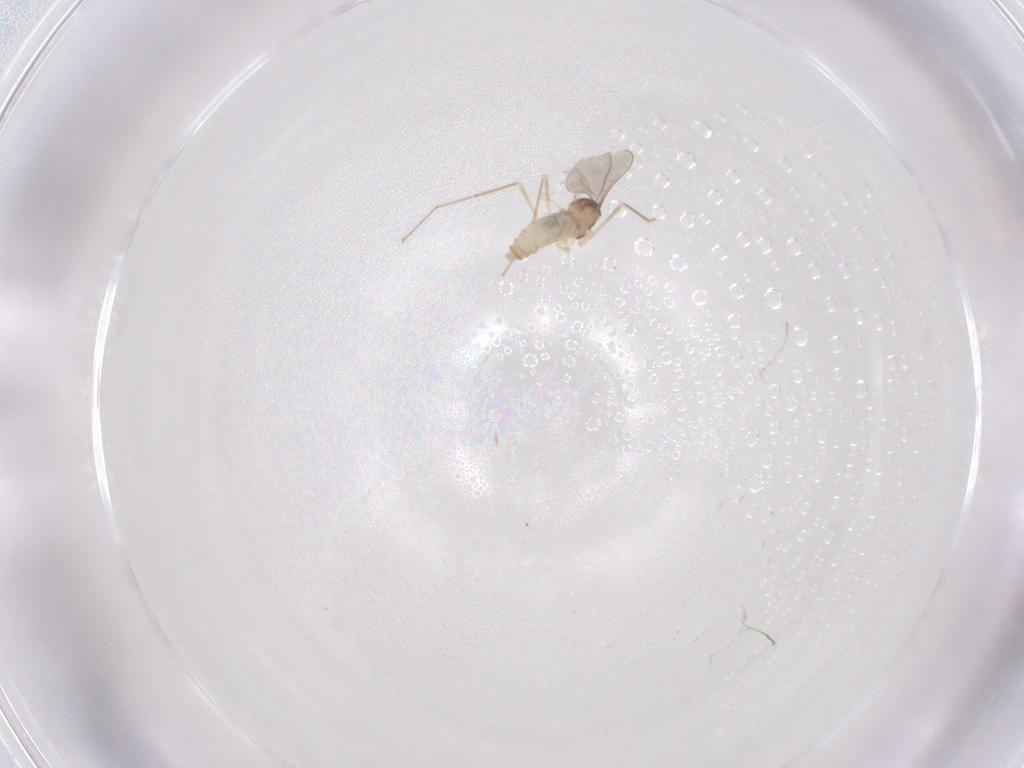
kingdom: Animalia
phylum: Arthropoda
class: Insecta
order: Diptera
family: Cecidomyiidae
